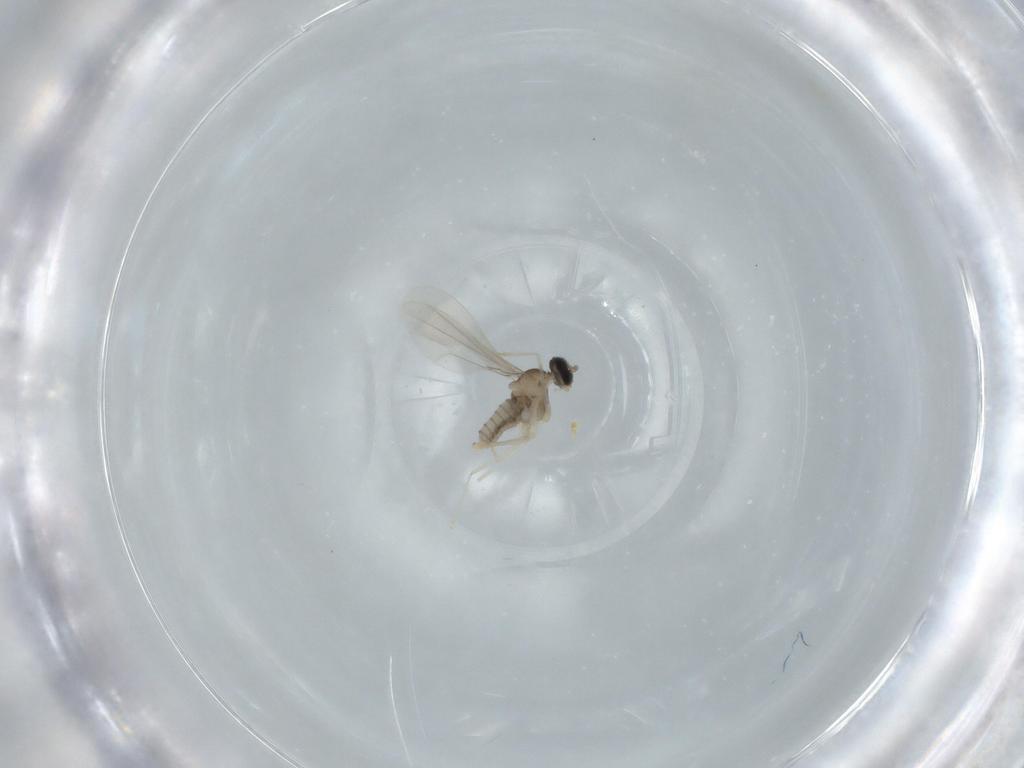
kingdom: Animalia
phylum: Arthropoda
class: Insecta
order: Diptera
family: Cecidomyiidae
